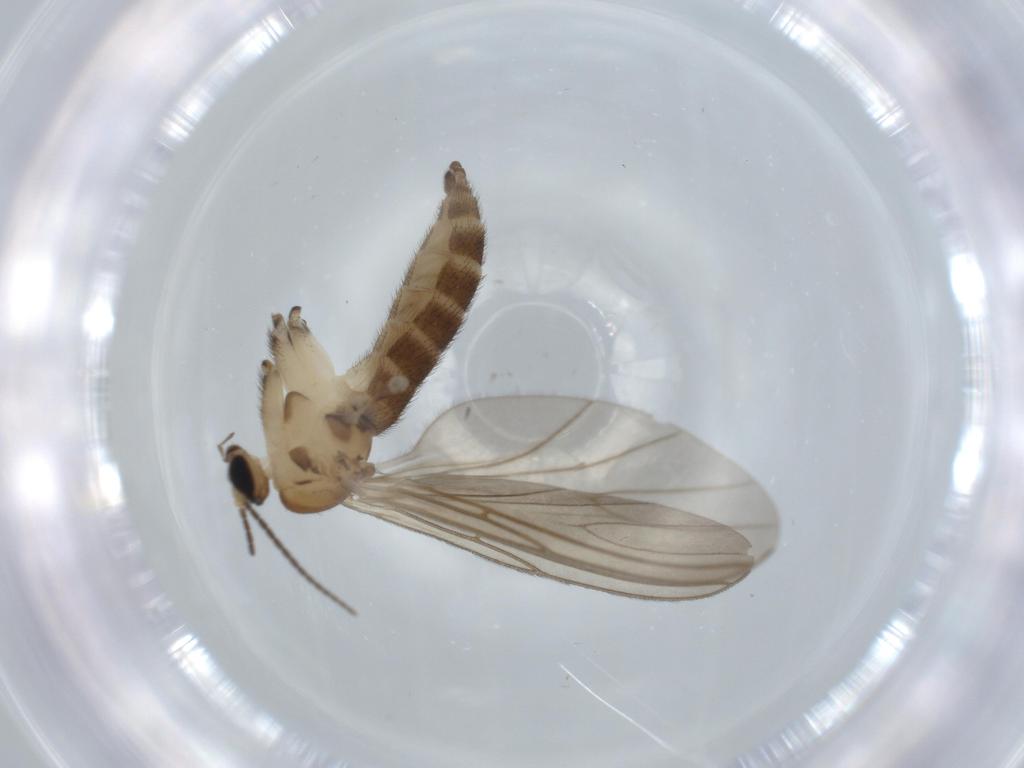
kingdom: Animalia
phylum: Arthropoda
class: Insecta
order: Diptera
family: Sciaridae
